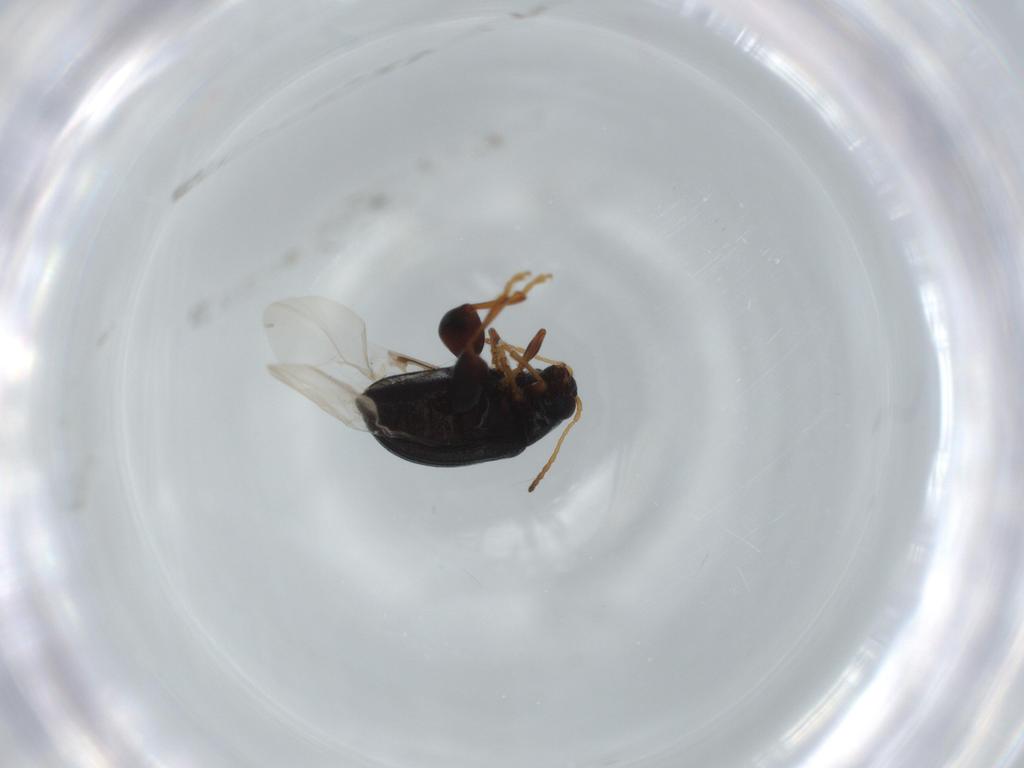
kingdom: Animalia
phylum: Arthropoda
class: Insecta
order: Coleoptera
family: Chrysomelidae
